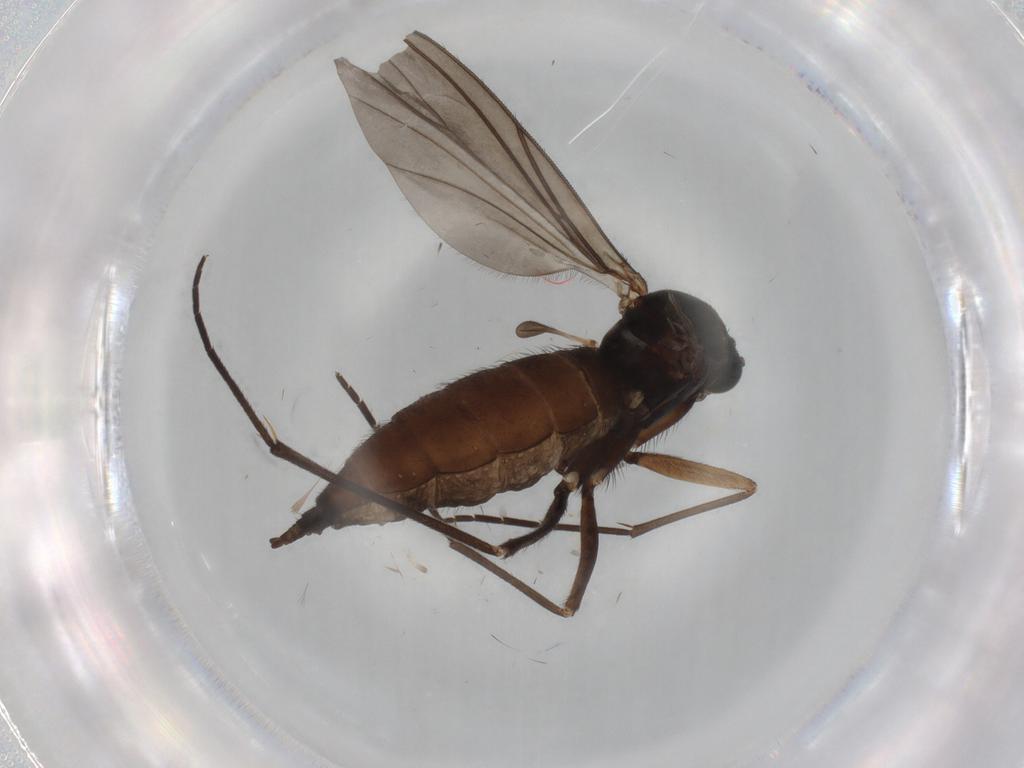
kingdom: Animalia
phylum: Arthropoda
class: Insecta
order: Diptera
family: Sciaridae
